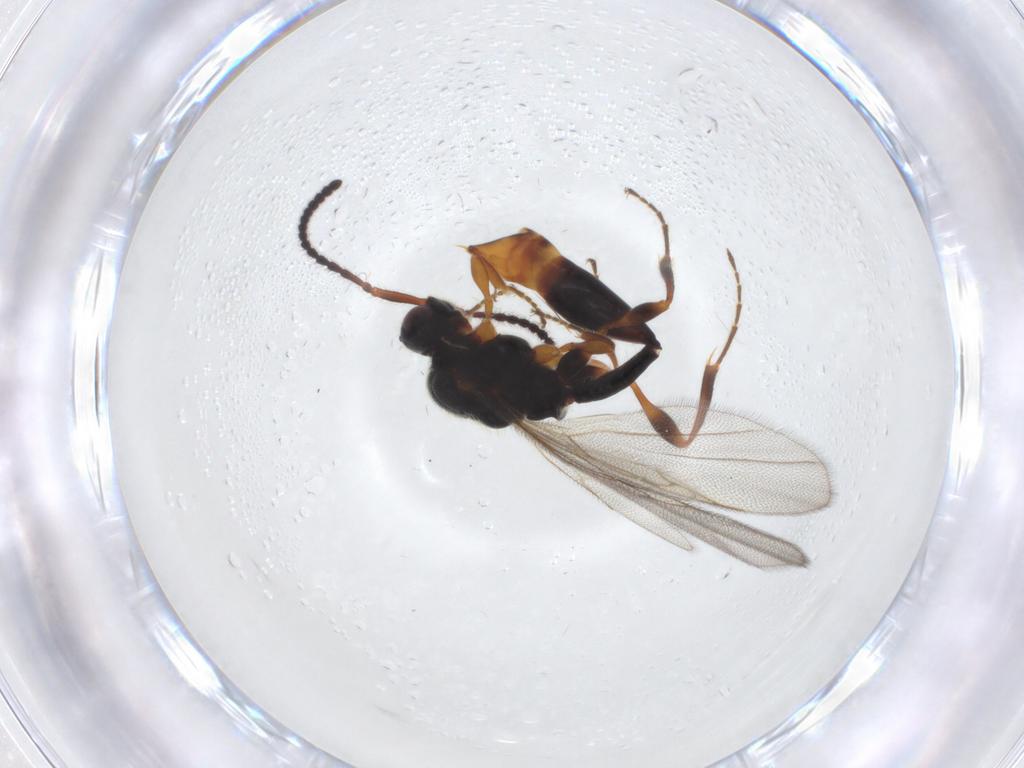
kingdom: Animalia
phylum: Arthropoda
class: Insecta
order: Hymenoptera
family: Diapriidae
